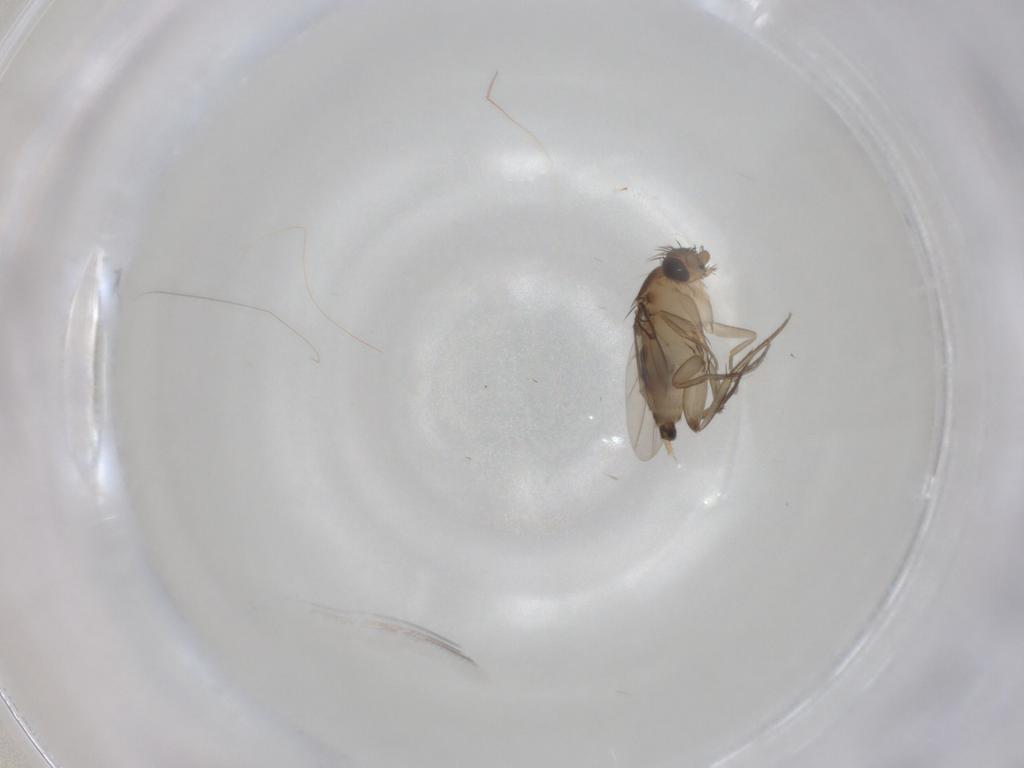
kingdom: Animalia
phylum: Arthropoda
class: Insecta
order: Diptera
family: Phoridae
